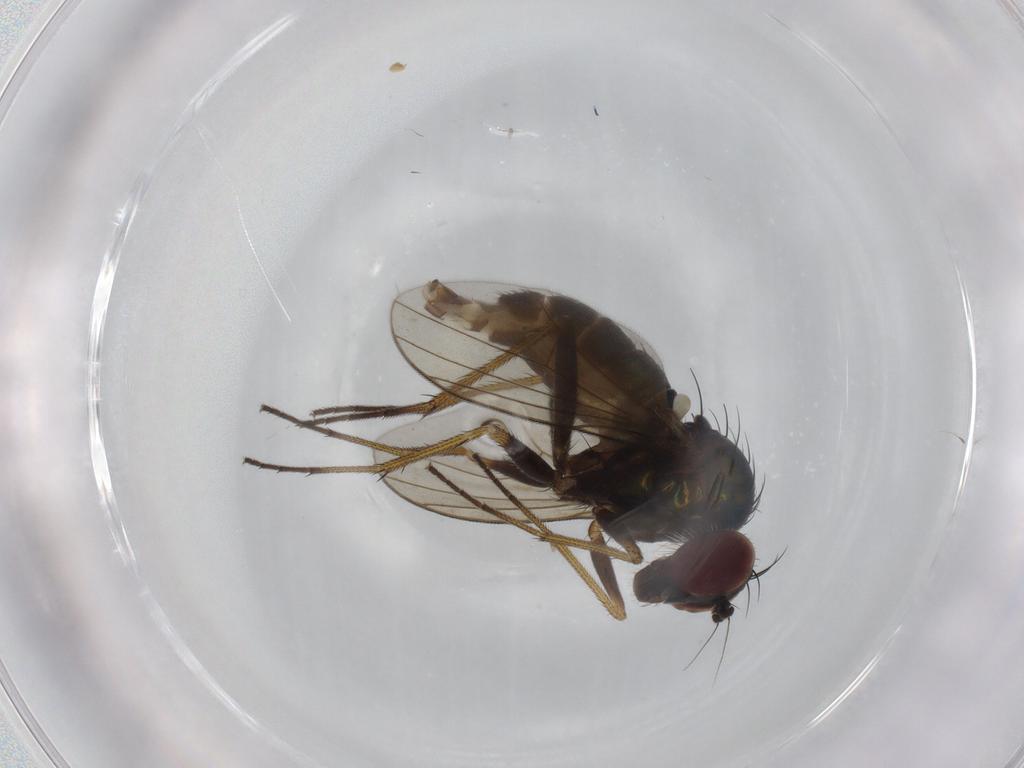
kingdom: Animalia
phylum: Arthropoda
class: Insecta
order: Diptera
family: Dolichopodidae
